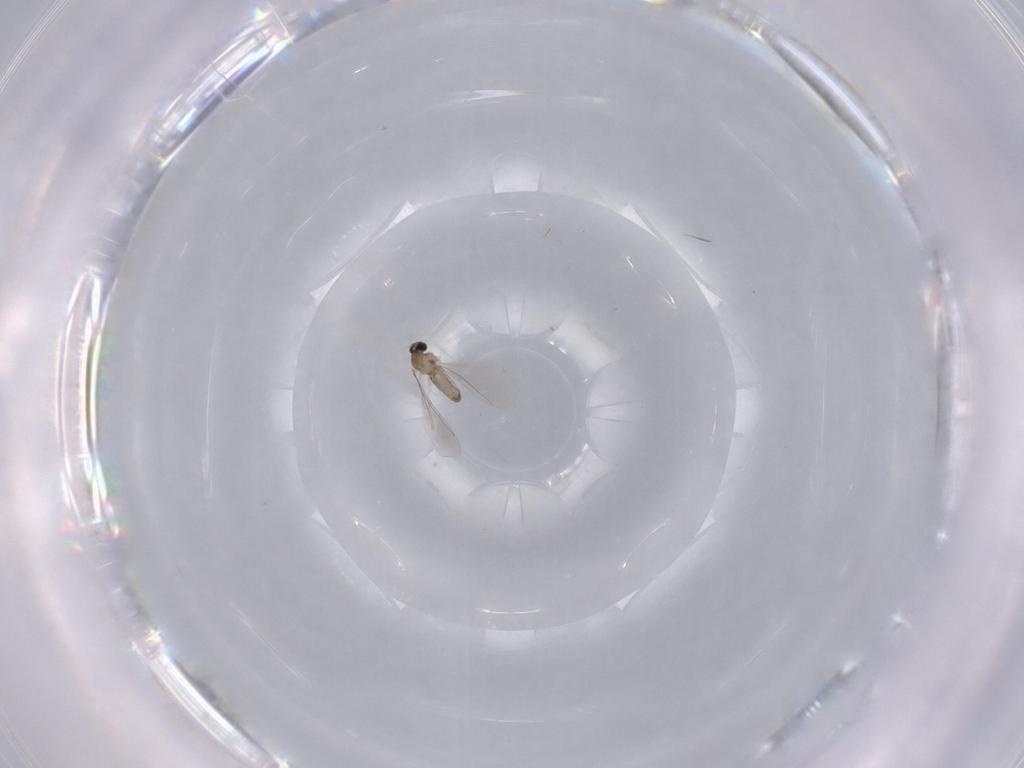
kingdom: Animalia
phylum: Arthropoda
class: Insecta
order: Diptera
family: Cecidomyiidae
